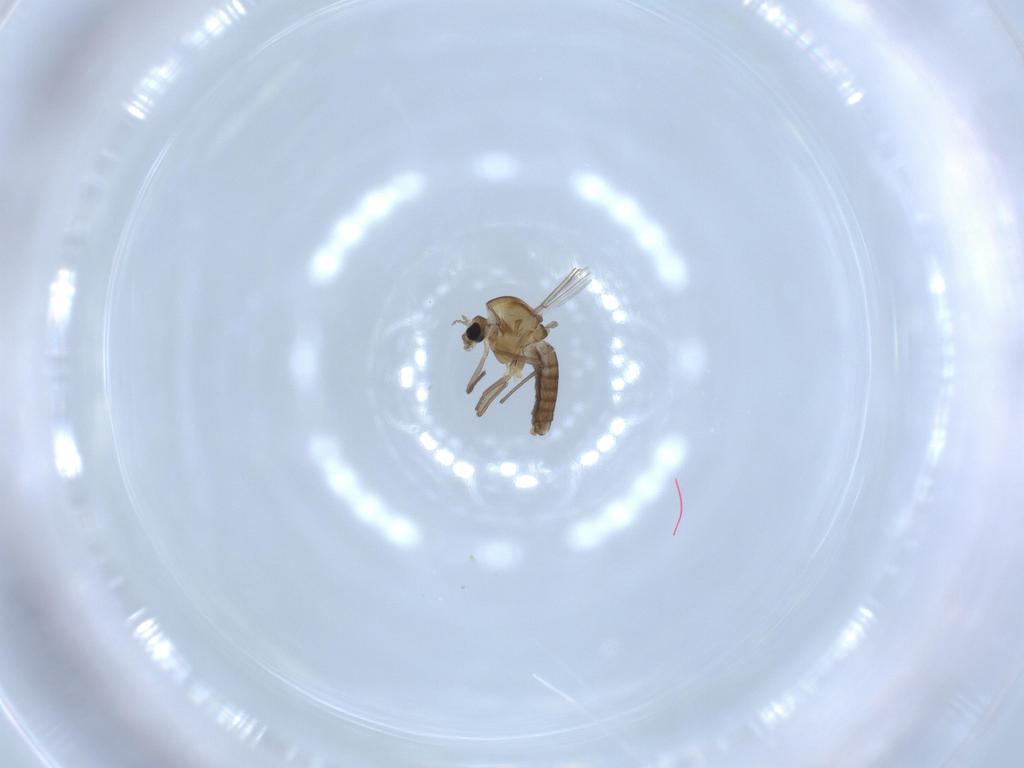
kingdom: Animalia
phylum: Arthropoda
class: Insecta
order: Diptera
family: Chironomidae
